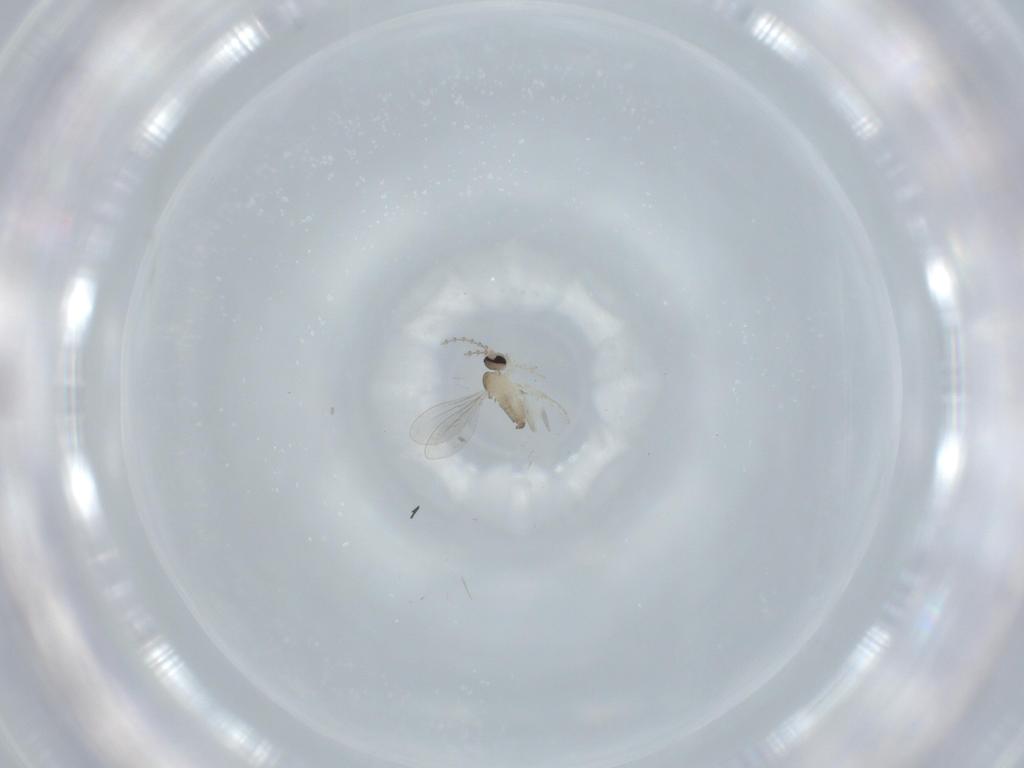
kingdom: Animalia
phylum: Arthropoda
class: Insecta
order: Diptera
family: Cecidomyiidae
